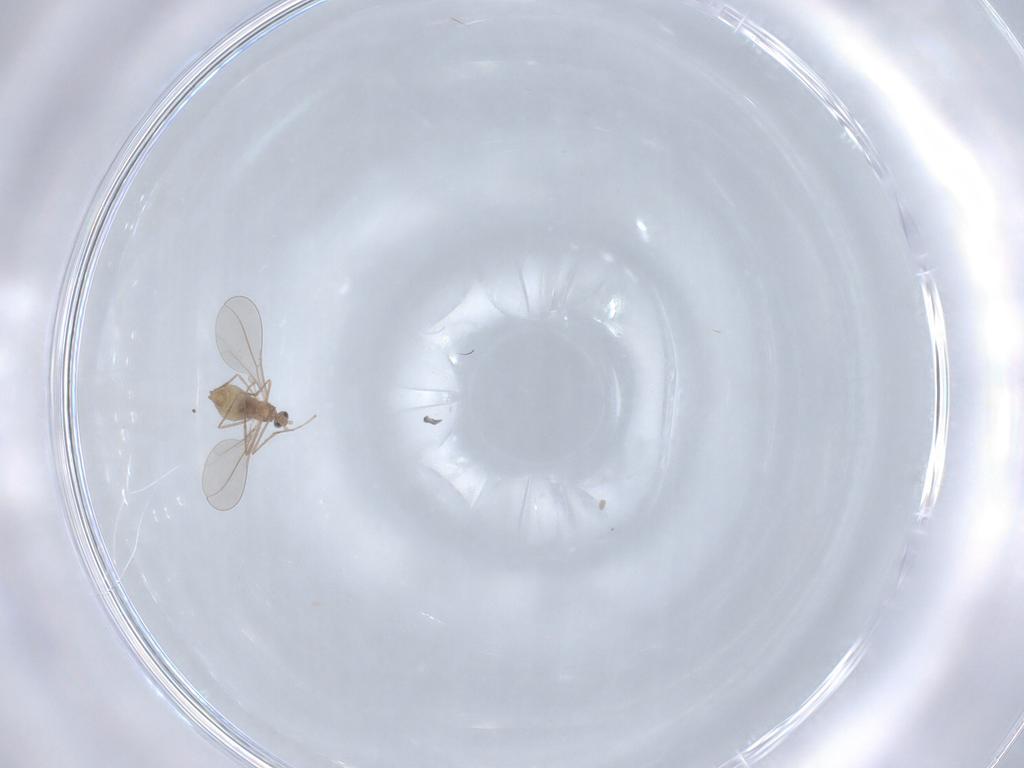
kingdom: Animalia
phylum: Arthropoda
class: Insecta
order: Diptera
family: Cecidomyiidae
